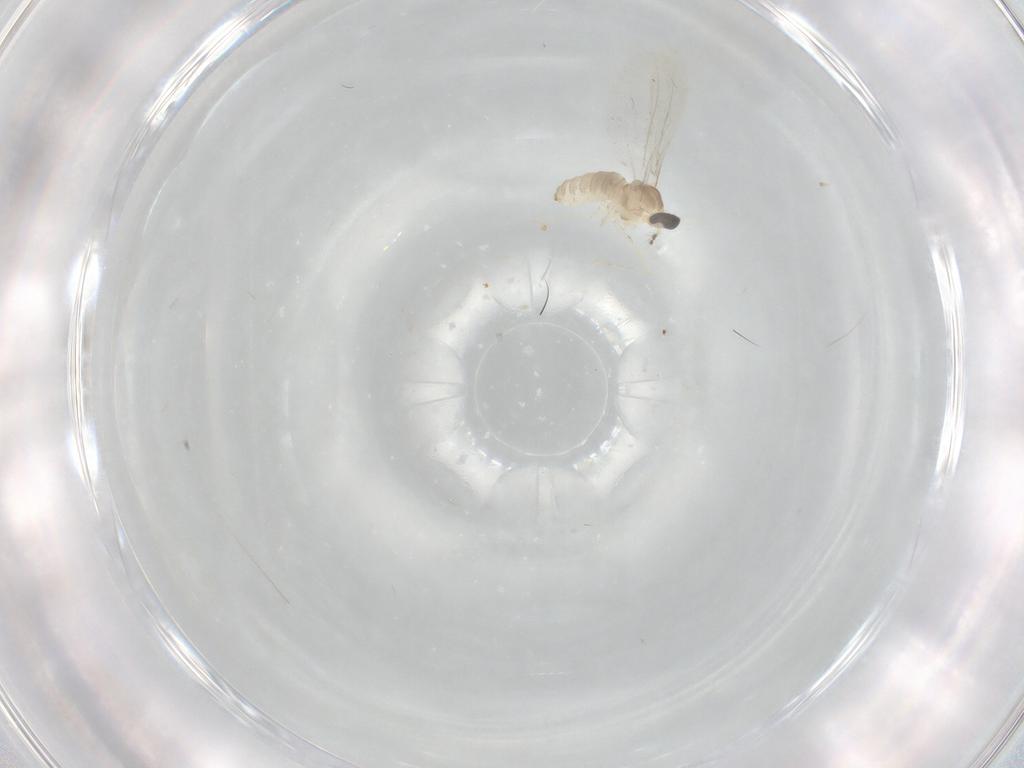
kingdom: Animalia
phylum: Arthropoda
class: Insecta
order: Diptera
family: Cecidomyiidae
